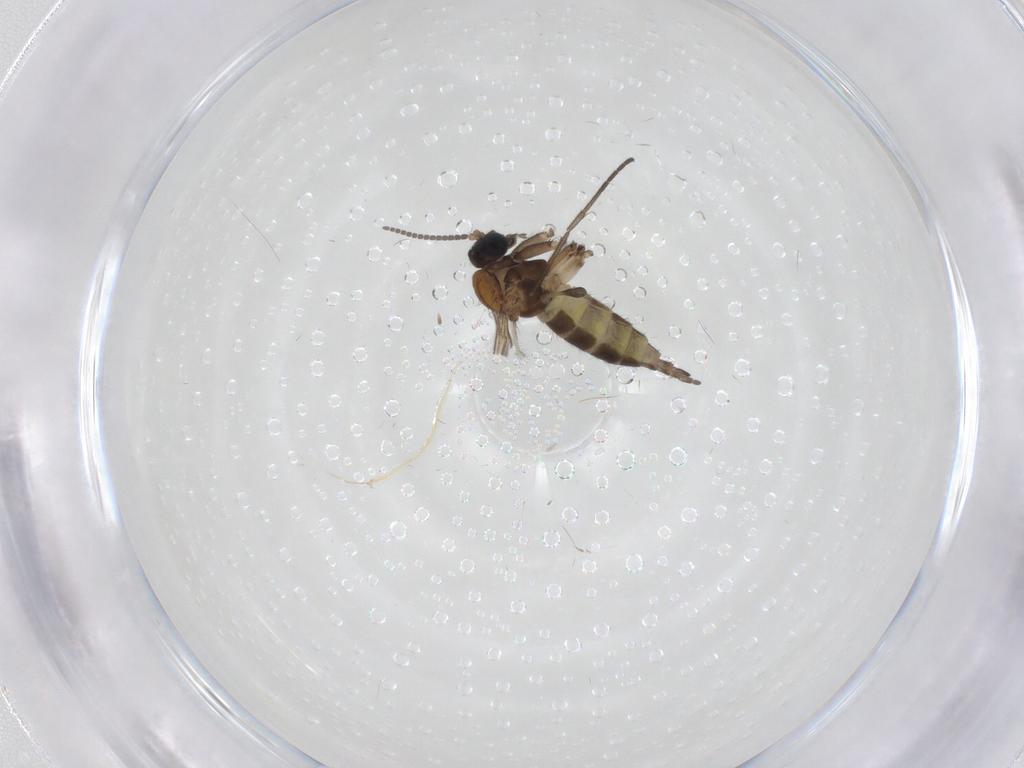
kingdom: Animalia
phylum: Arthropoda
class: Insecta
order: Diptera
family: Sciaridae
